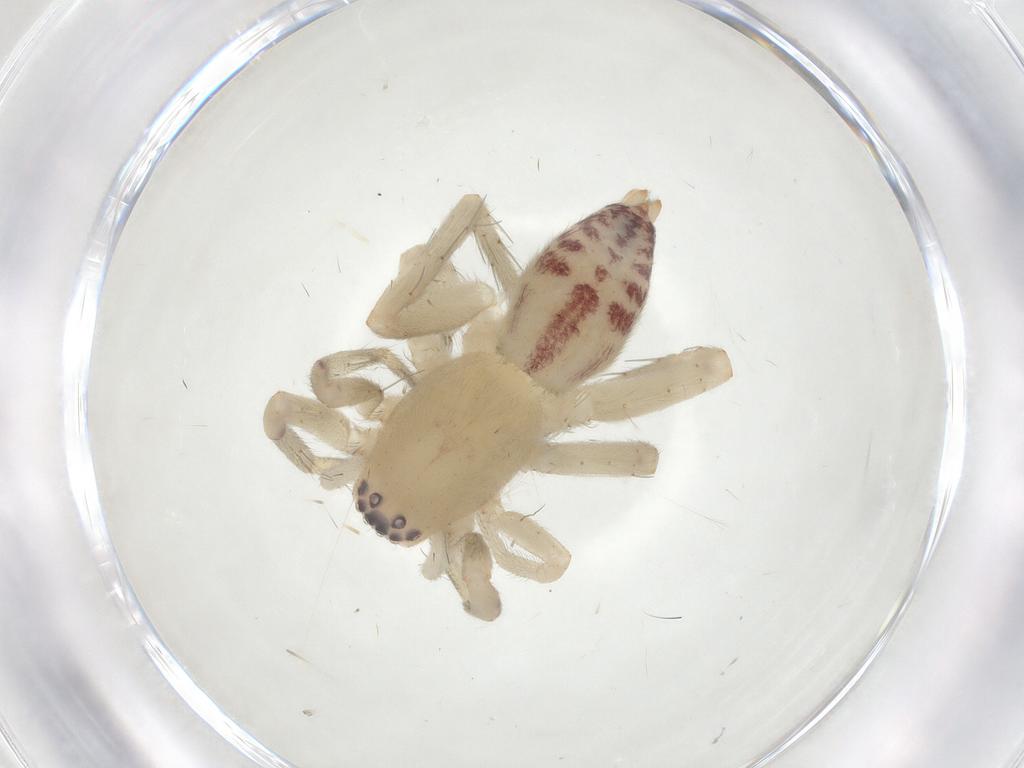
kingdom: Animalia
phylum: Arthropoda
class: Arachnida
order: Araneae
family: Clubionidae
